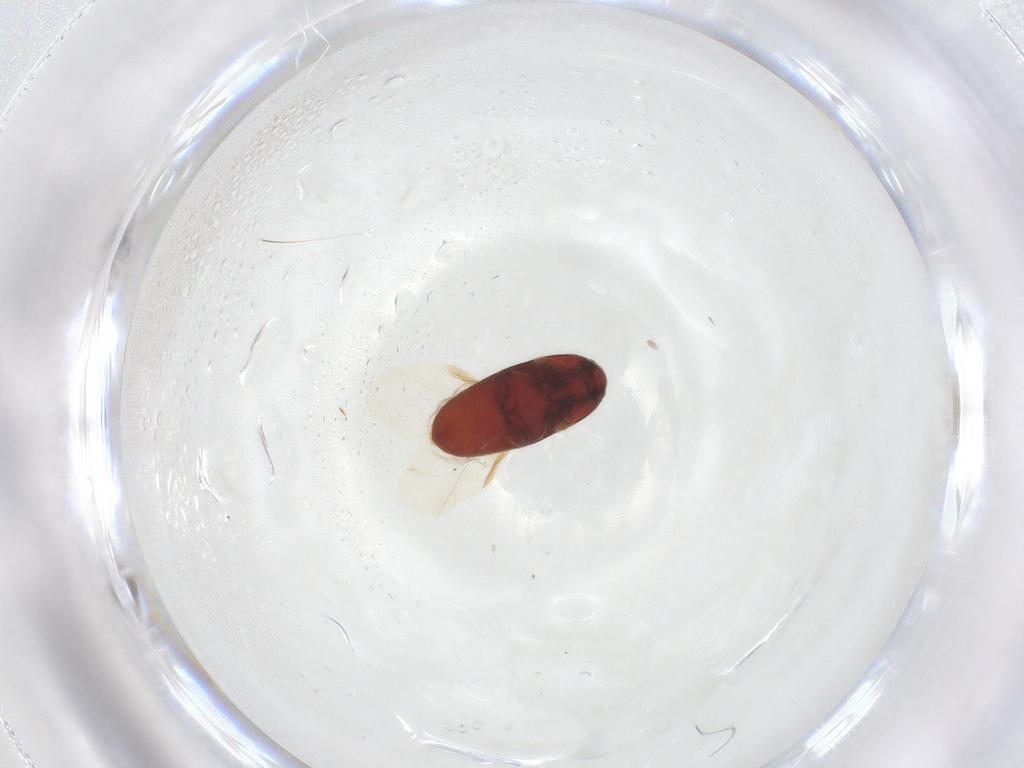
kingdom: Animalia
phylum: Arthropoda
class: Insecta
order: Coleoptera
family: Throscidae
